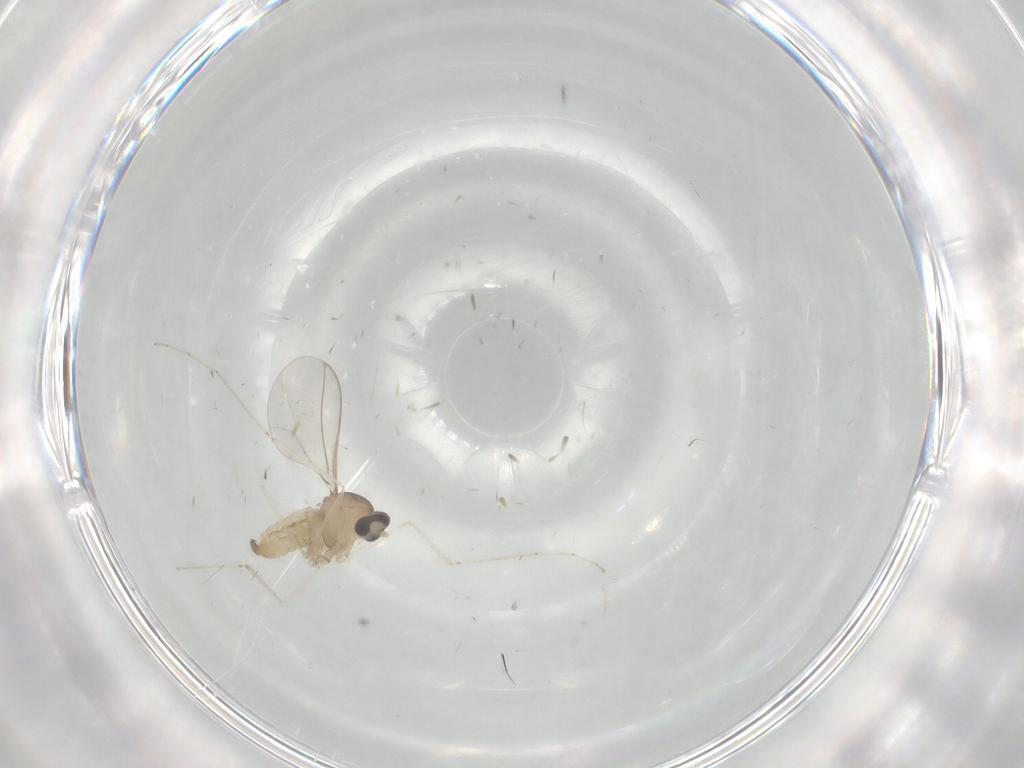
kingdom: Animalia
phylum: Arthropoda
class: Insecta
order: Diptera
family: Cecidomyiidae
